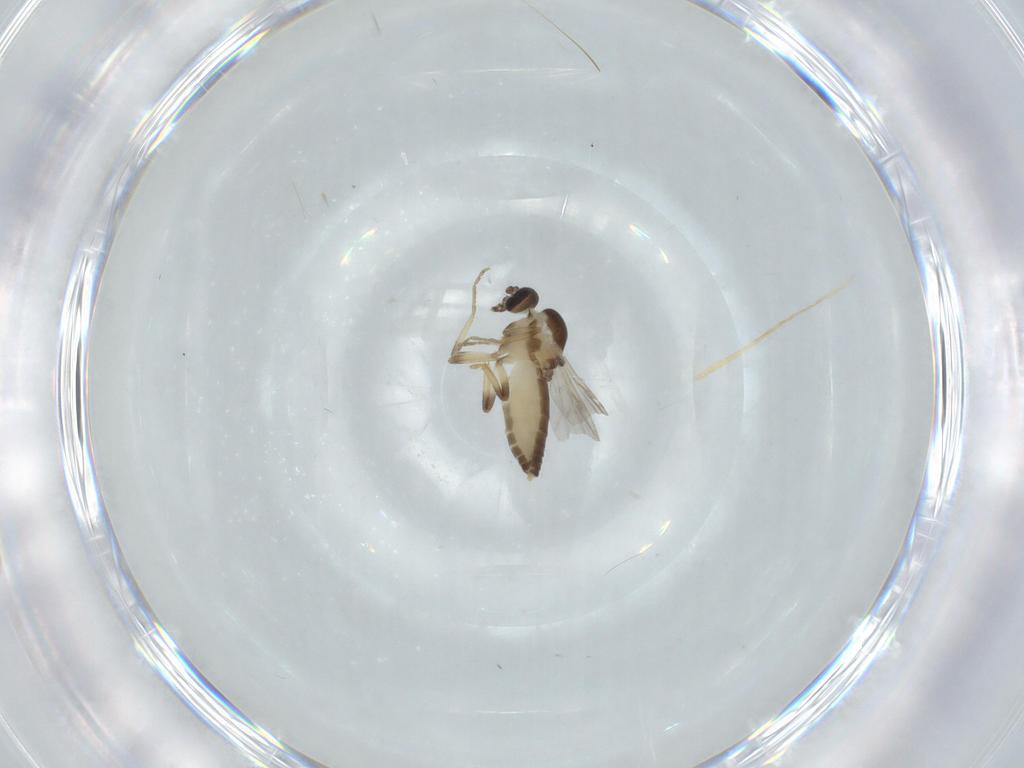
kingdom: Animalia
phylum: Arthropoda
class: Insecta
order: Diptera
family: Ceratopogonidae
